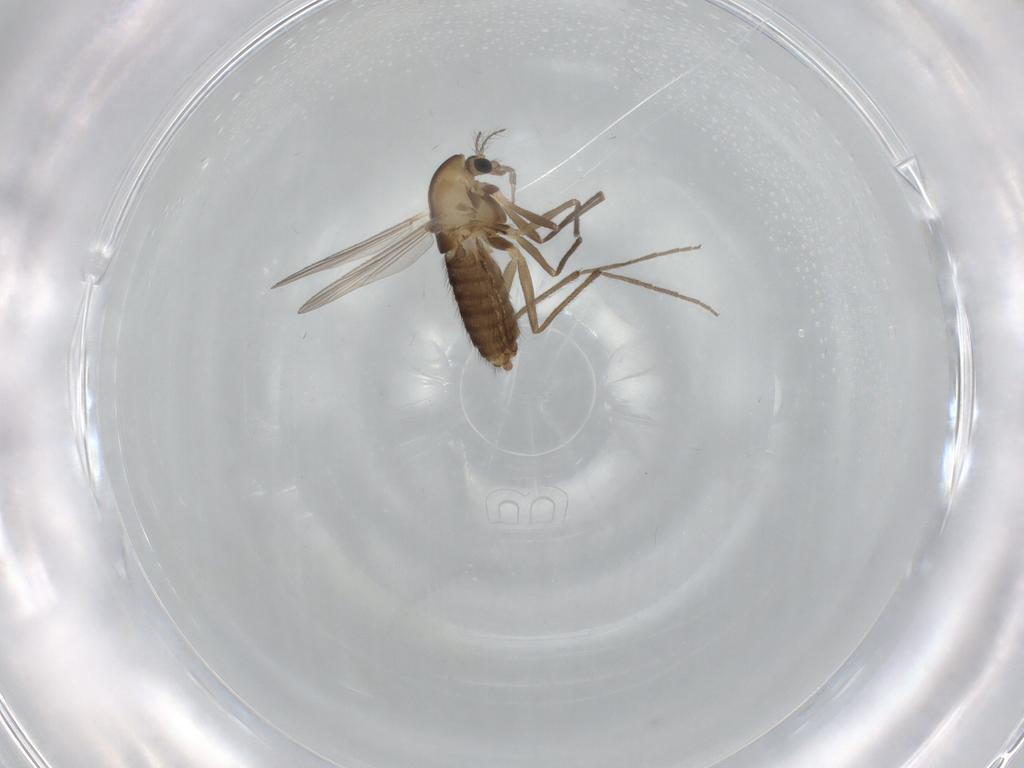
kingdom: Animalia
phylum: Arthropoda
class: Insecta
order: Diptera
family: Chironomidae
